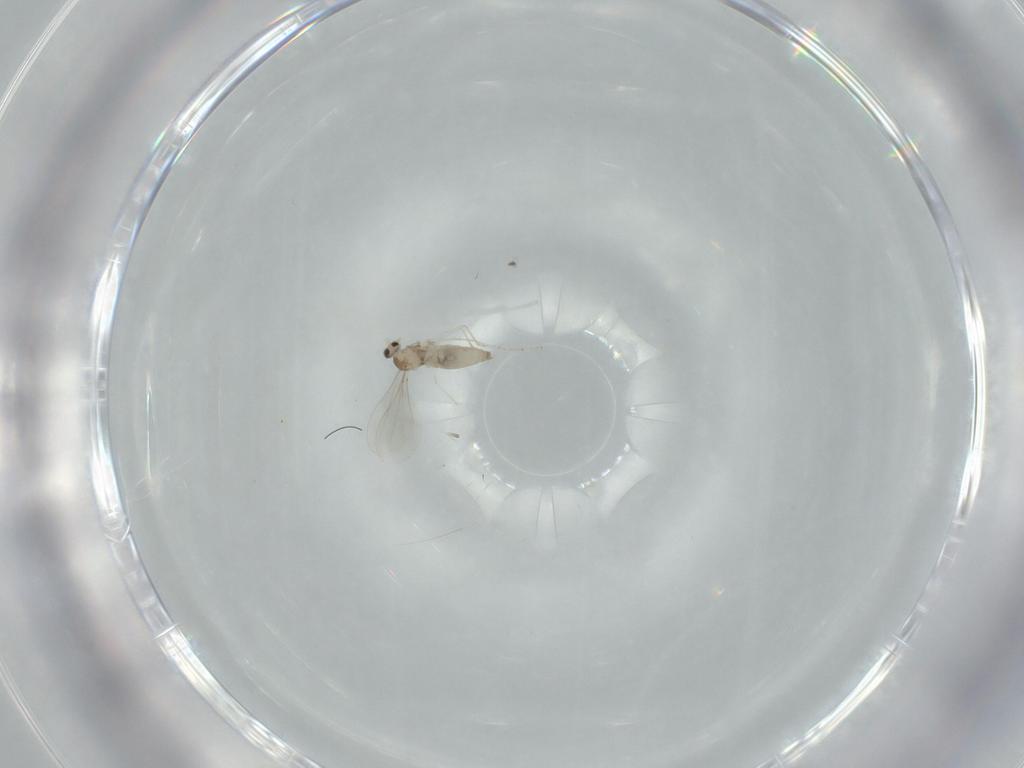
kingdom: Animalia
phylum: Arthropoda
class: Insecta
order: Diptera
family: Cecidomyiidae
